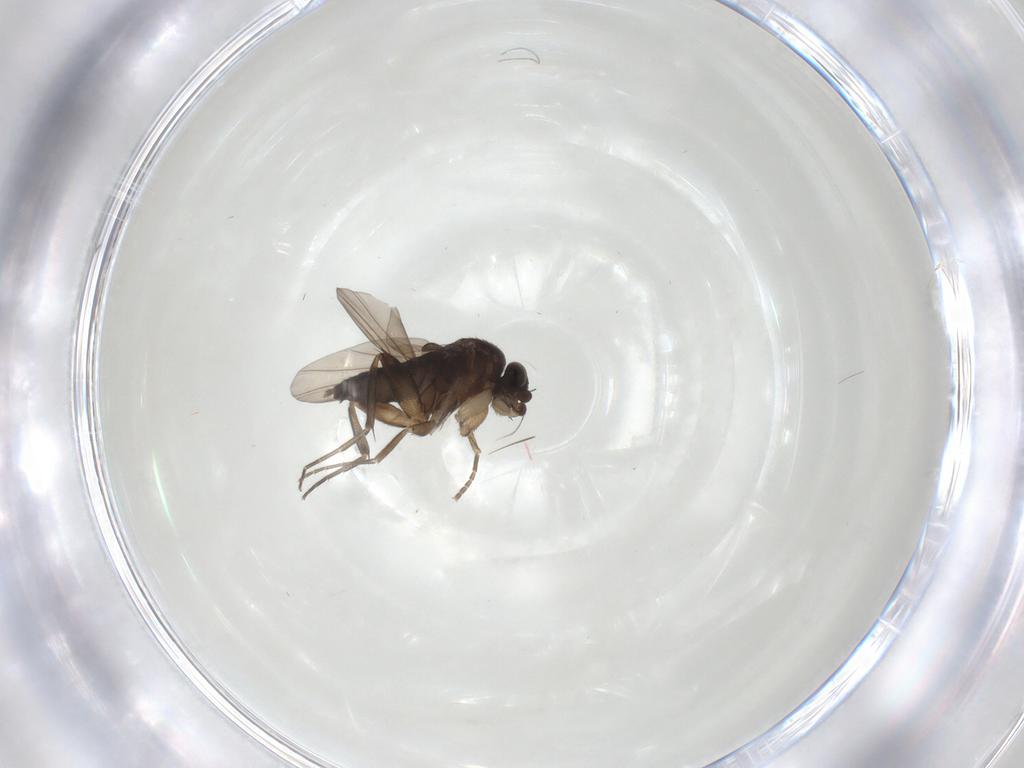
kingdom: Animalia
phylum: Arthropoda
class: Insecta
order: Diptera
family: Phoridae
